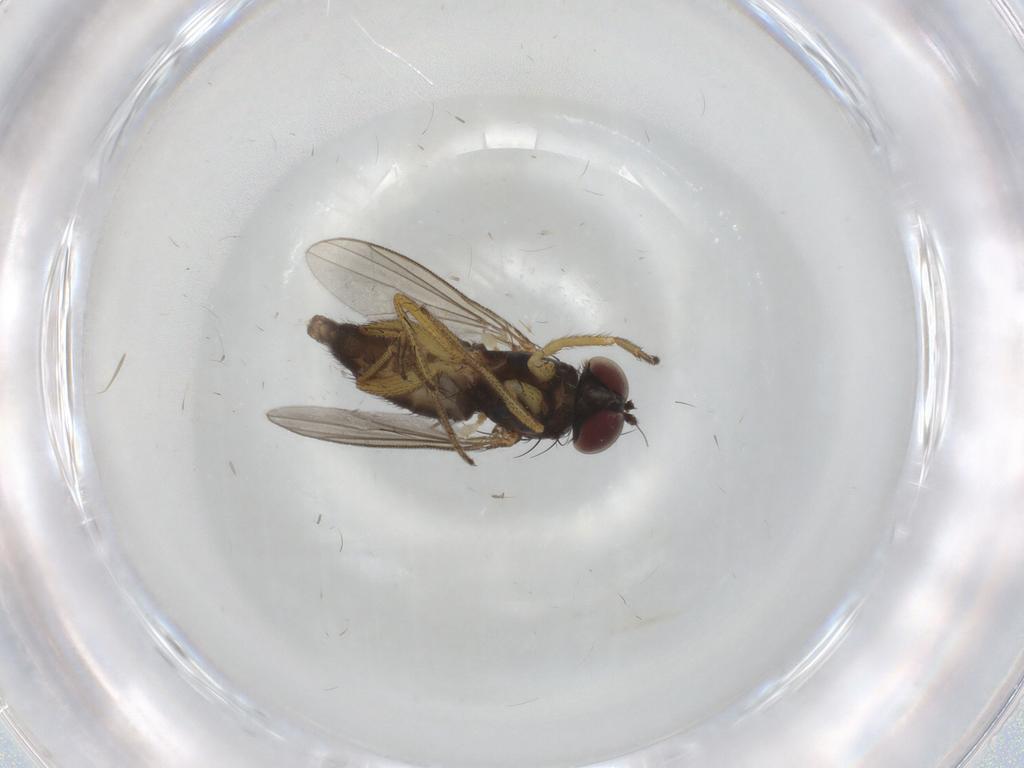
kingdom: Animalia
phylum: Arthropoda
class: Insecta
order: Diptera
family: Dolichopodidae
